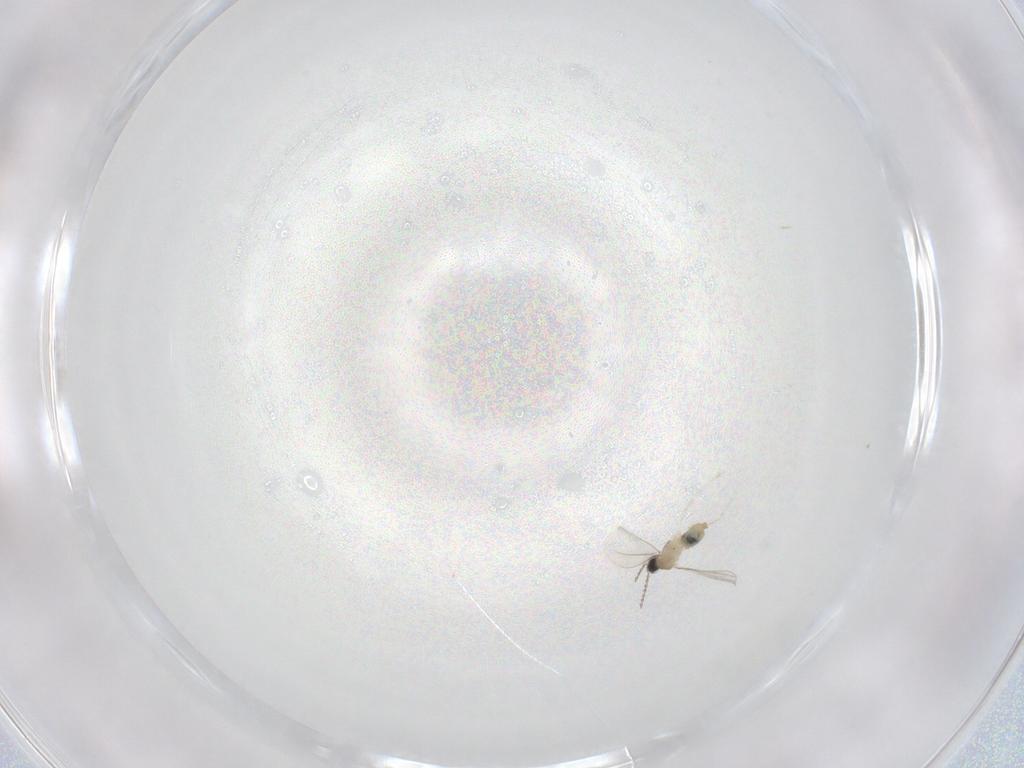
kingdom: Animalia
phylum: Arthropoda
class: Insecta
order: Diptera
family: Cecidomyiidae
